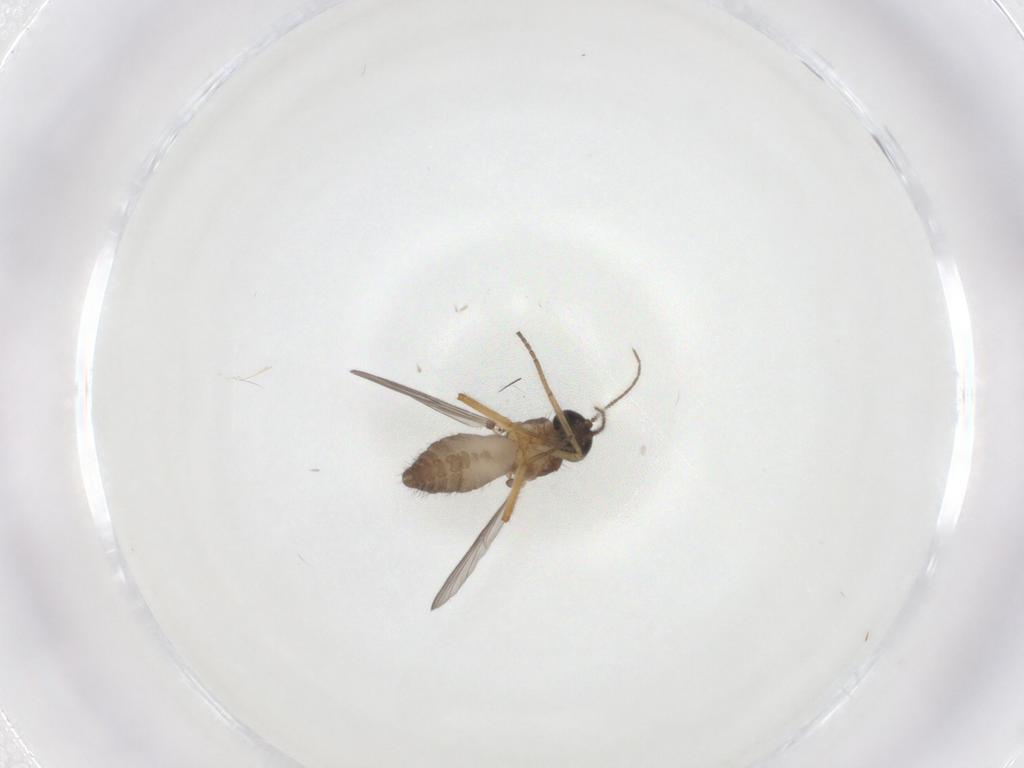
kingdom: Animalia
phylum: Arthropoda
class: Insecta
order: Diptera
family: Ceratopogonidae
